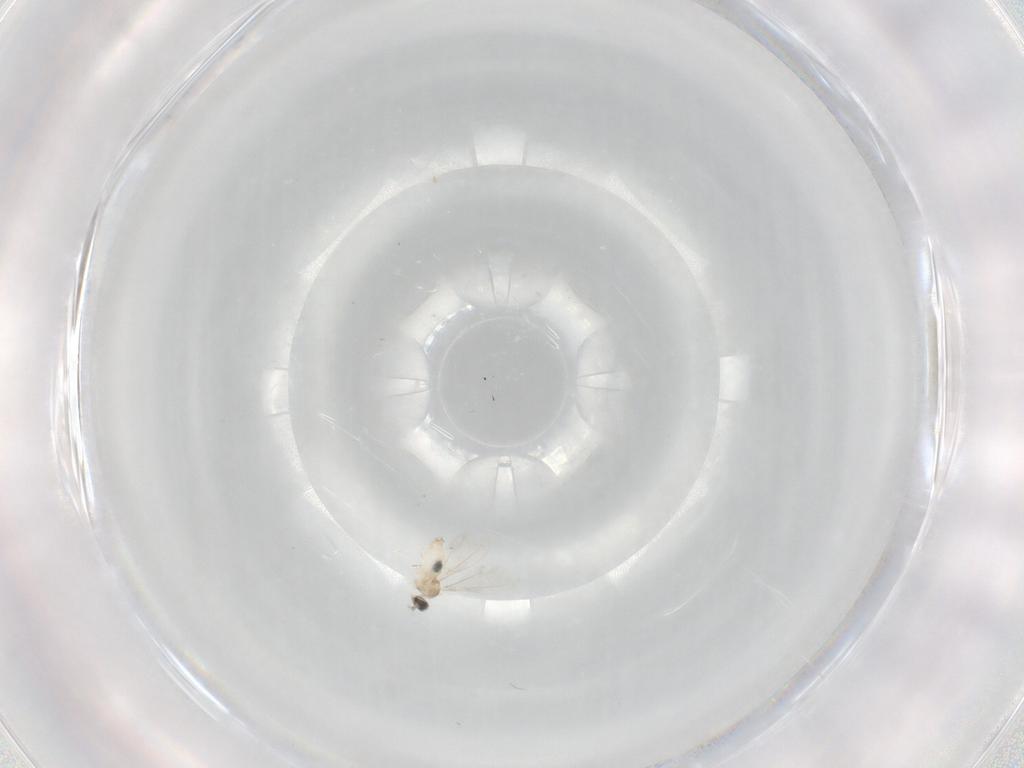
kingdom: Animalia
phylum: Arthropoda
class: Insecta
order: Diptera
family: Cecidomyiidae
